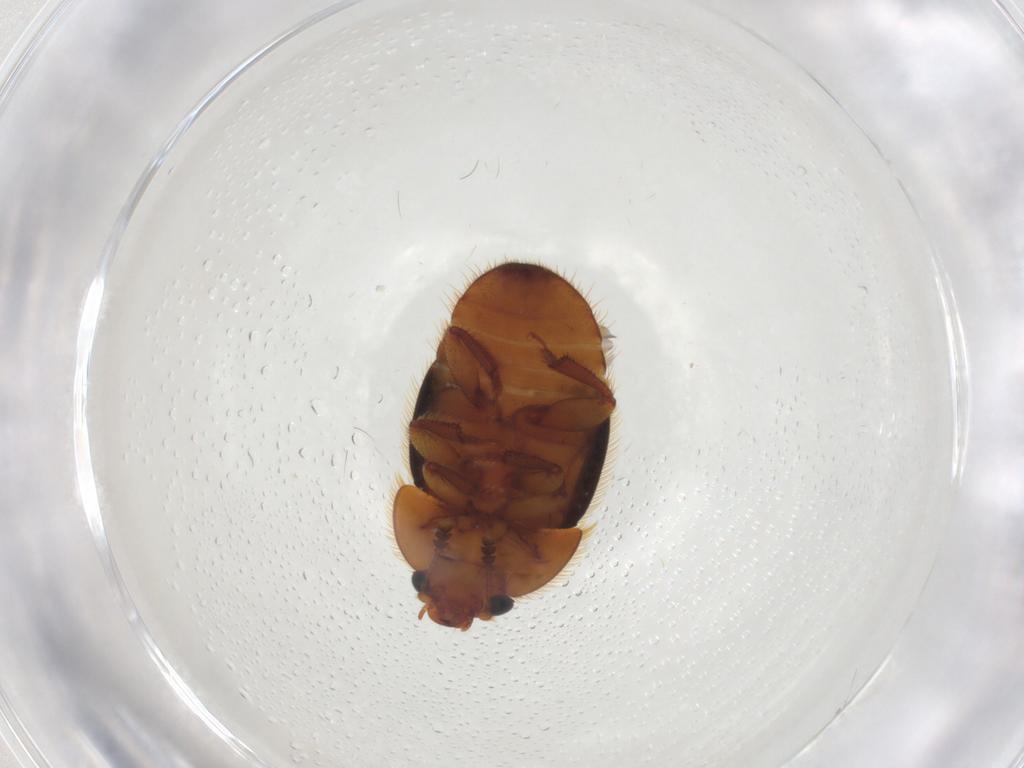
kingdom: Animalia
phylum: Arthropoda
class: Insecta
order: Coleoptera
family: Nitidulidae
